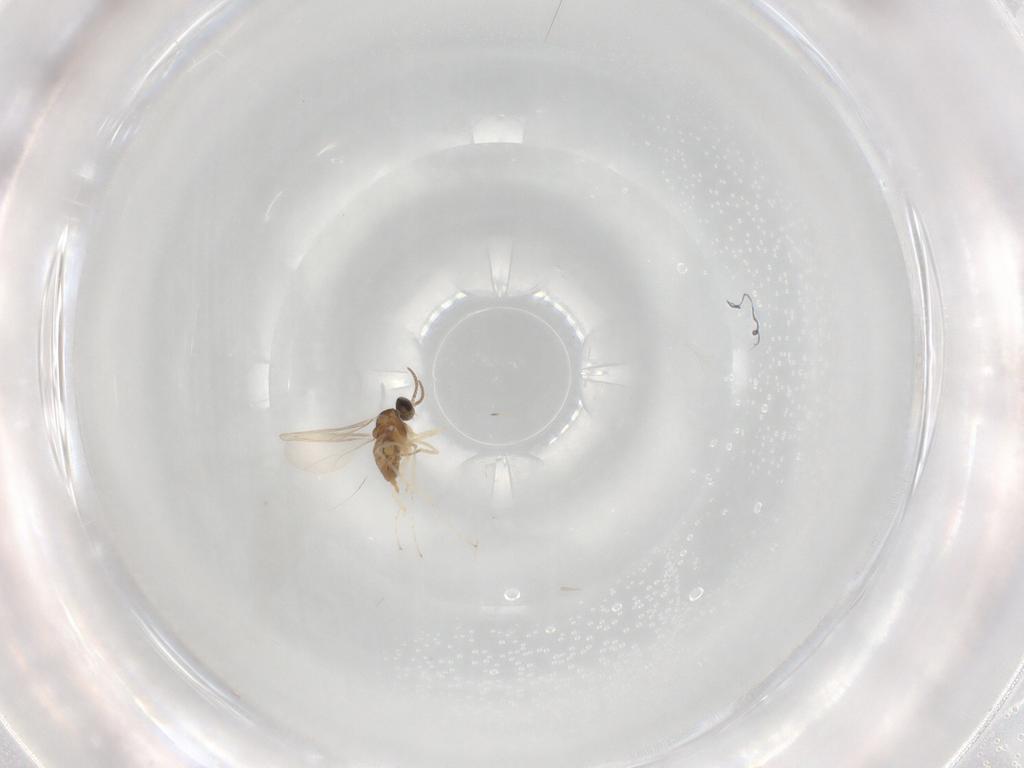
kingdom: Animalia
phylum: Arthropoda
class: Insecta
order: Diptera
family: Cecidomyiidae
